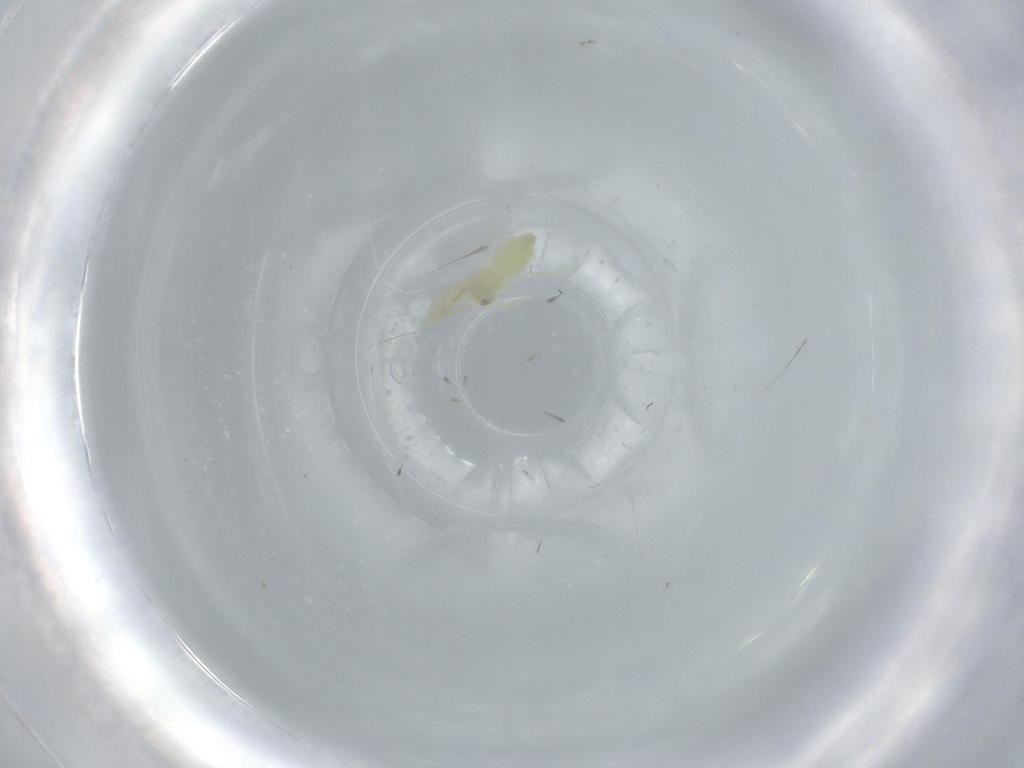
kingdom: Animalia
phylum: Arthropoda
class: Insecta
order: Hemiptera
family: Aleyrodidae
